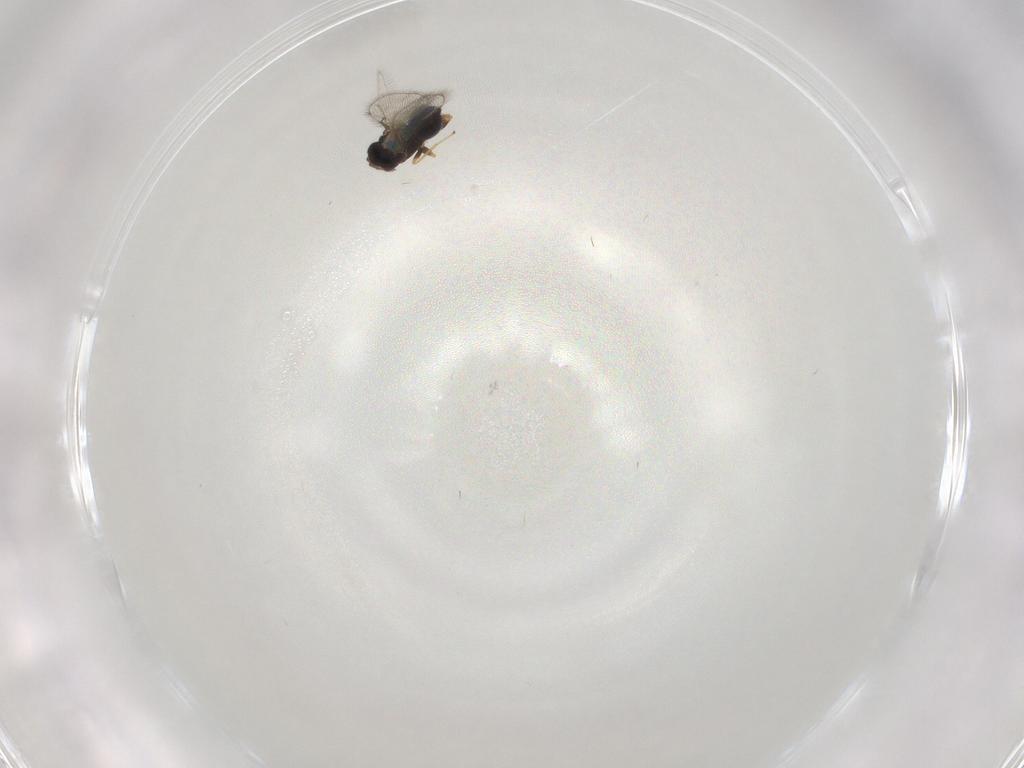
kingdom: Animalia
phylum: Arthropoda
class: Insecta
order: Hymenoptera
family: Eulophidae
